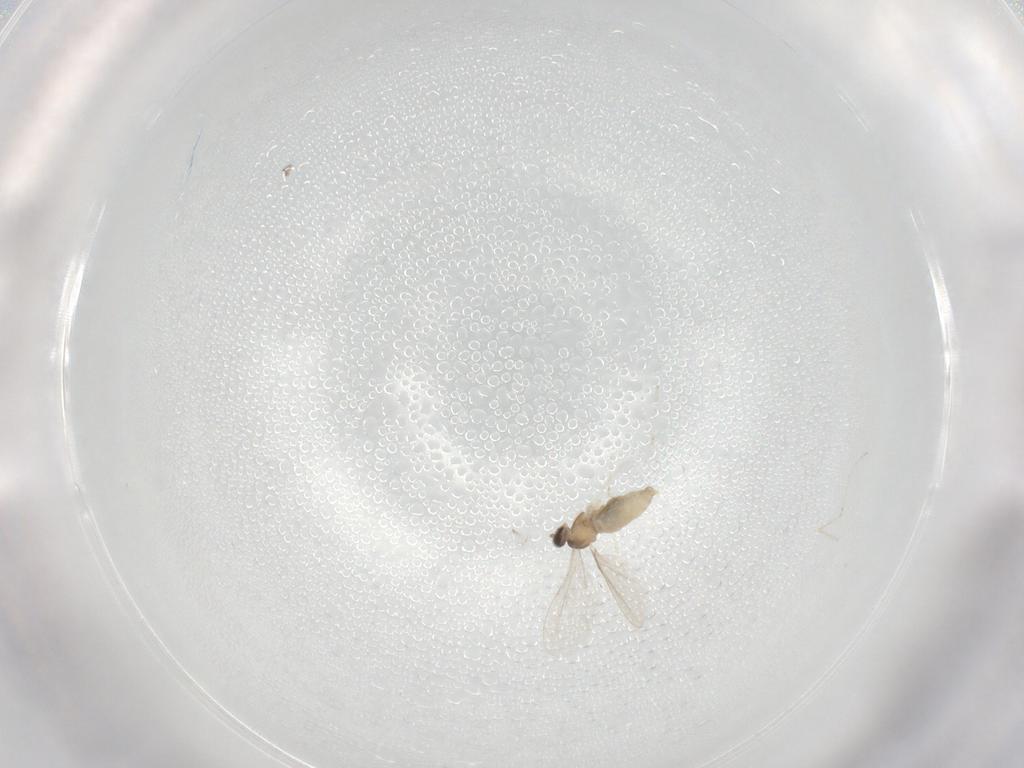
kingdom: Animalia
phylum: Arthropoda
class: Insecta
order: Diptera
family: Cecidomyiidae
